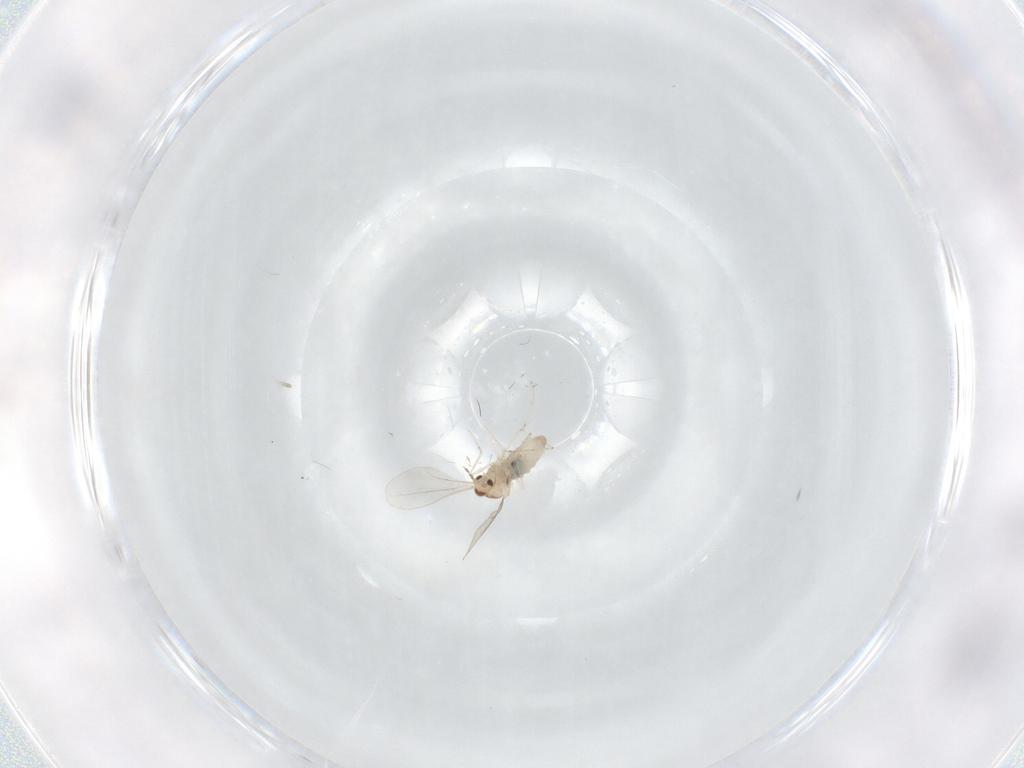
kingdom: Animalia
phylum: Arthropoda
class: Insecta
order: Diptera
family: Cecidomyiidae
